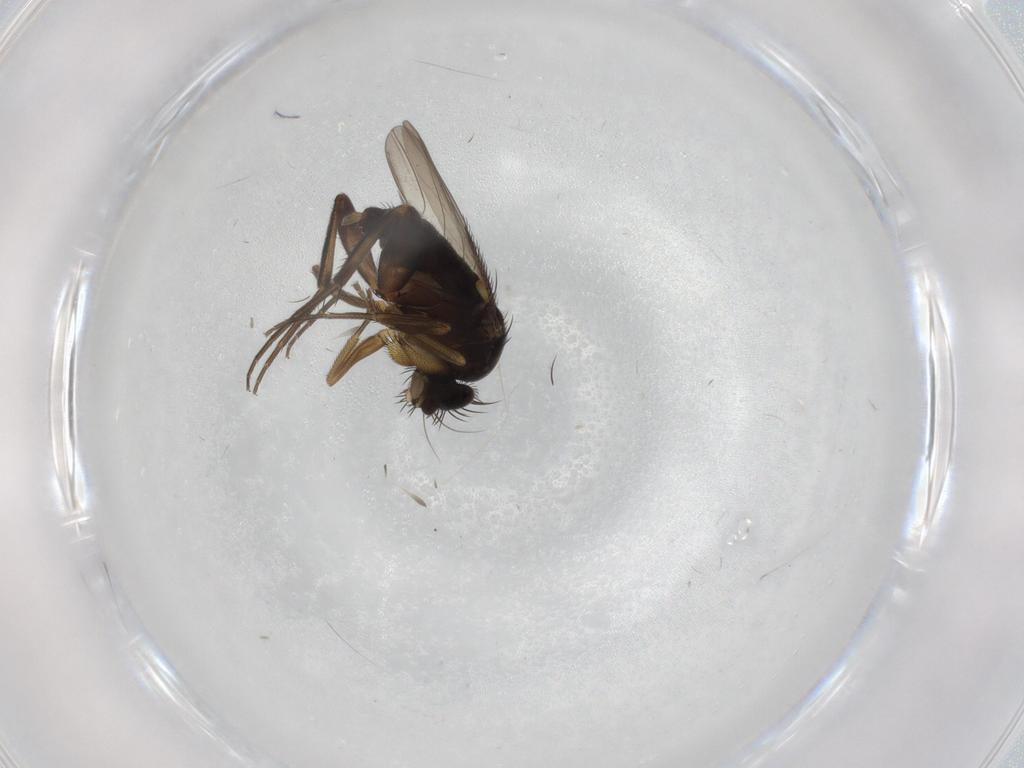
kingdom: Animalia
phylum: Arthropoda
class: Insecta
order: Diptera
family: Phoridae
